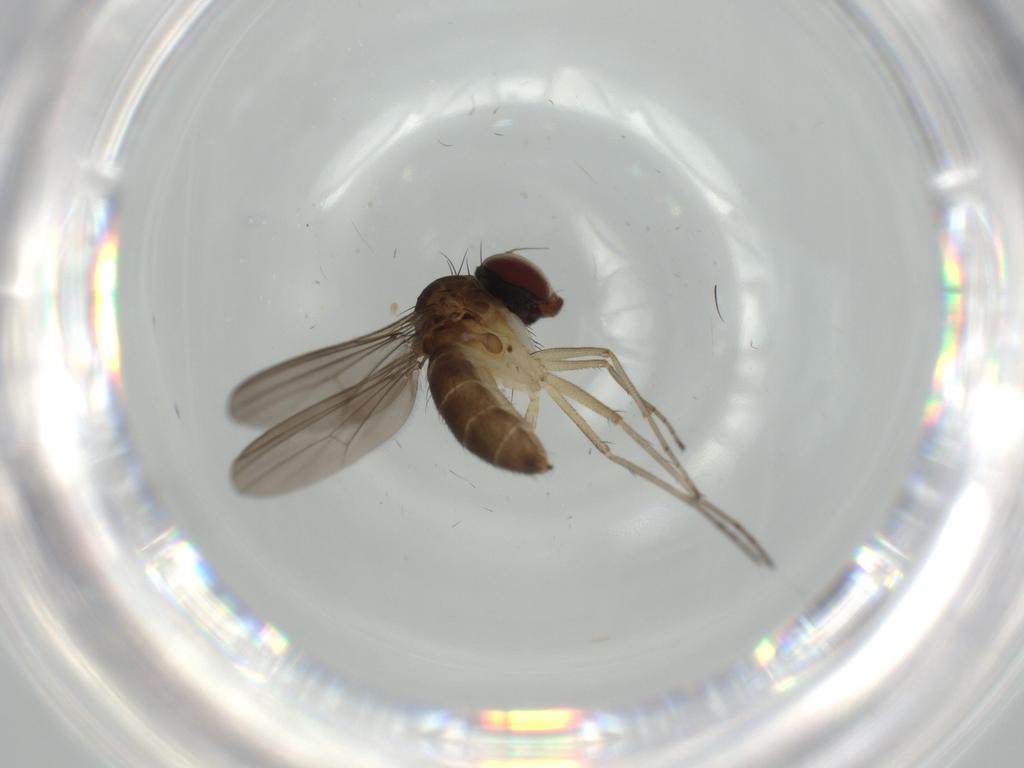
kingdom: Animalia
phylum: Arthropoda
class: Insecta
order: Diptera
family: Dolichopodidae
